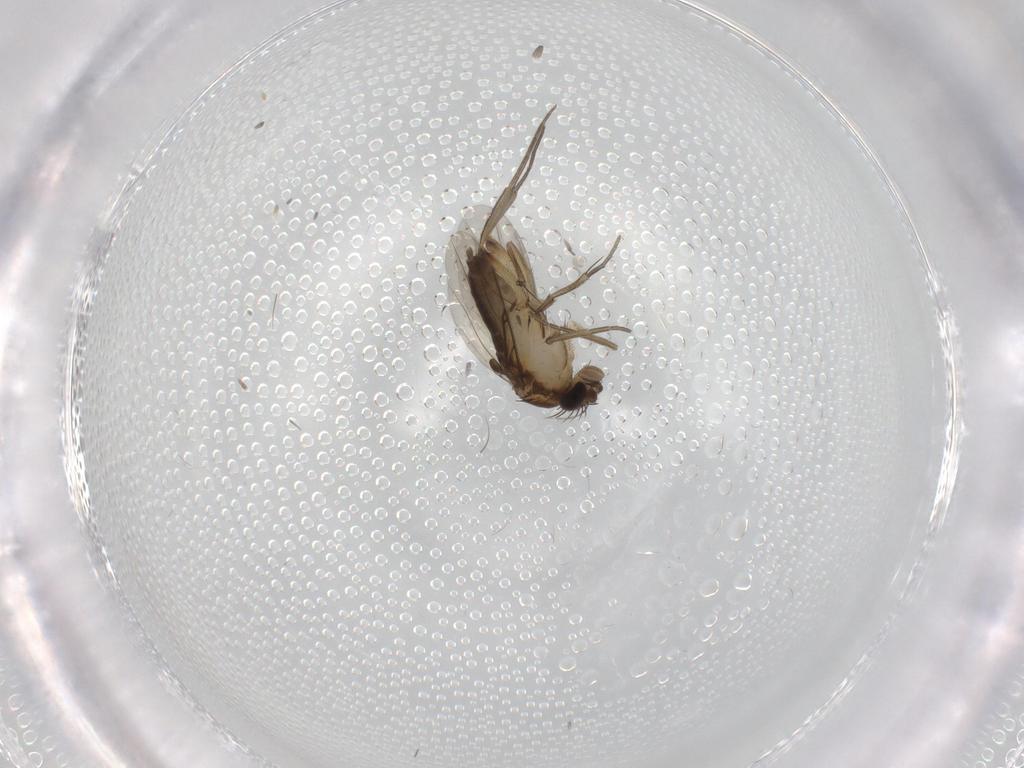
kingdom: Animalia
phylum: Arthropoda
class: Insecta
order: Diptera
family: Phoridae
